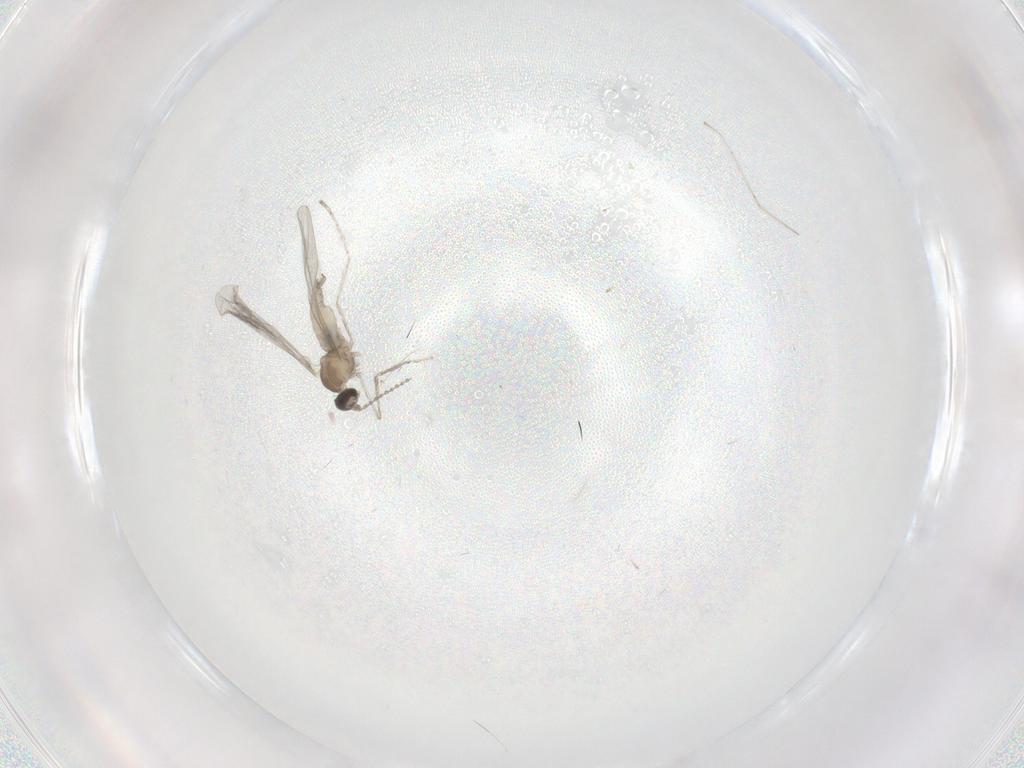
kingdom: Animalia
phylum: Arthropoda
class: Insecta
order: Diptera
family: Cecidomyiidae
